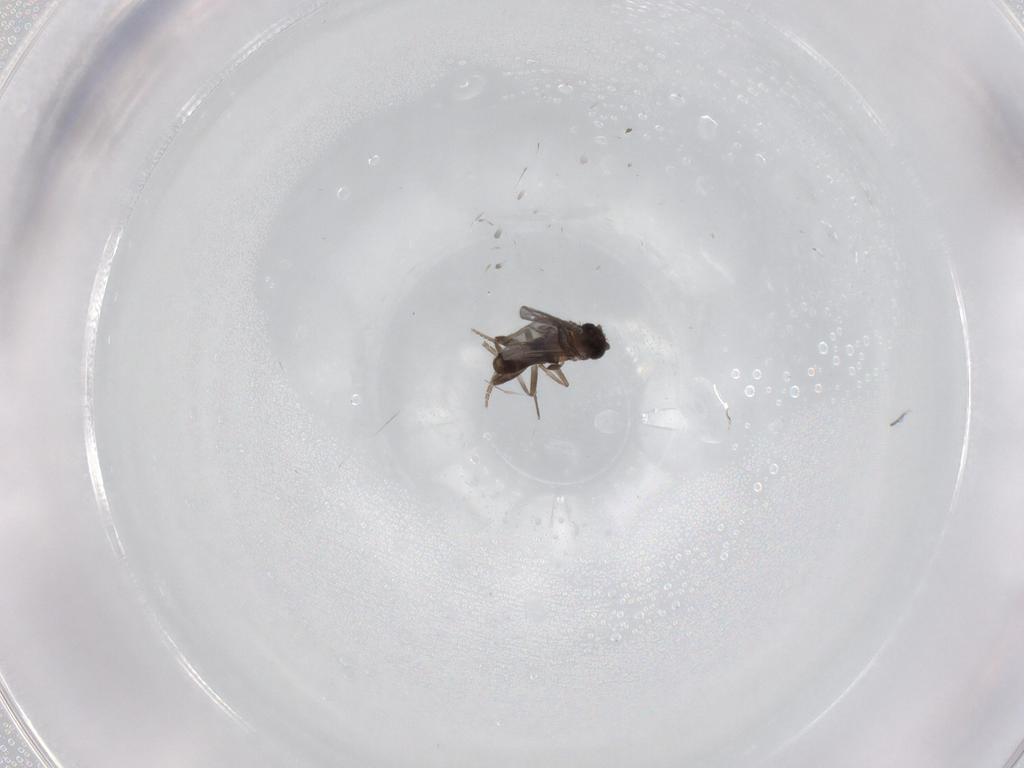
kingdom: Animalia
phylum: Arthropoda
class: Insecta
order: Diptera
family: Chironomidae
